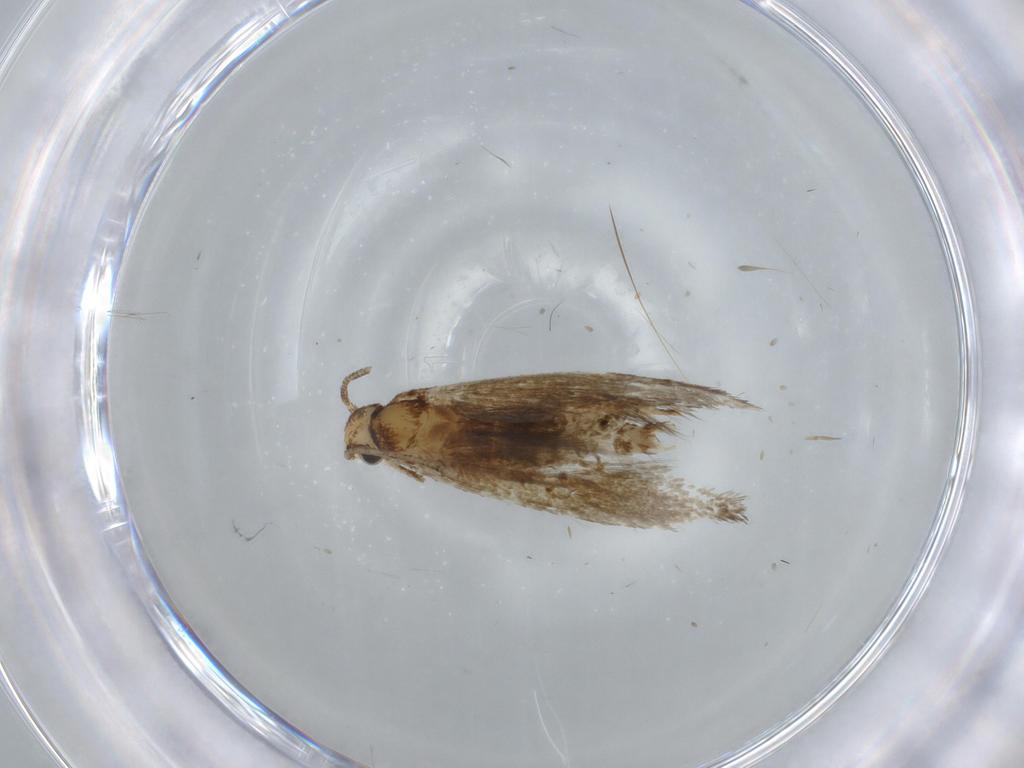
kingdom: Animalia
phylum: Arthropoda
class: Insecta
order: Lepidoptera
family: Tineidae
